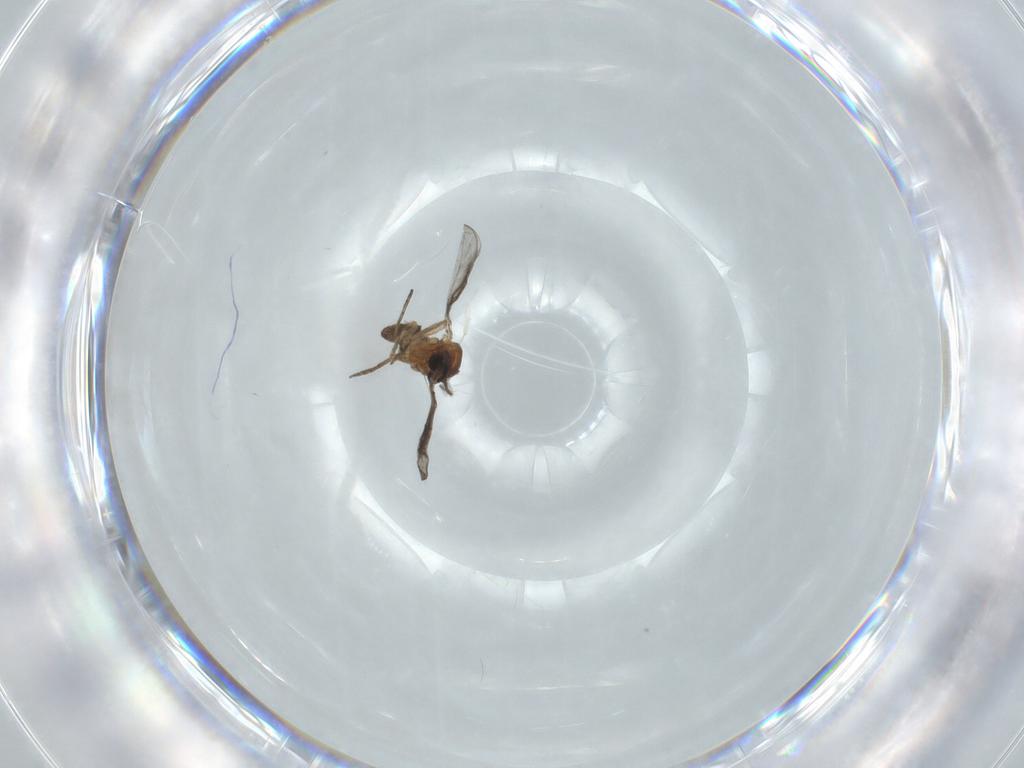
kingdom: Animalia
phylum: Arthropoda
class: Insecta
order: Diptera
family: Ceratopogonidae
